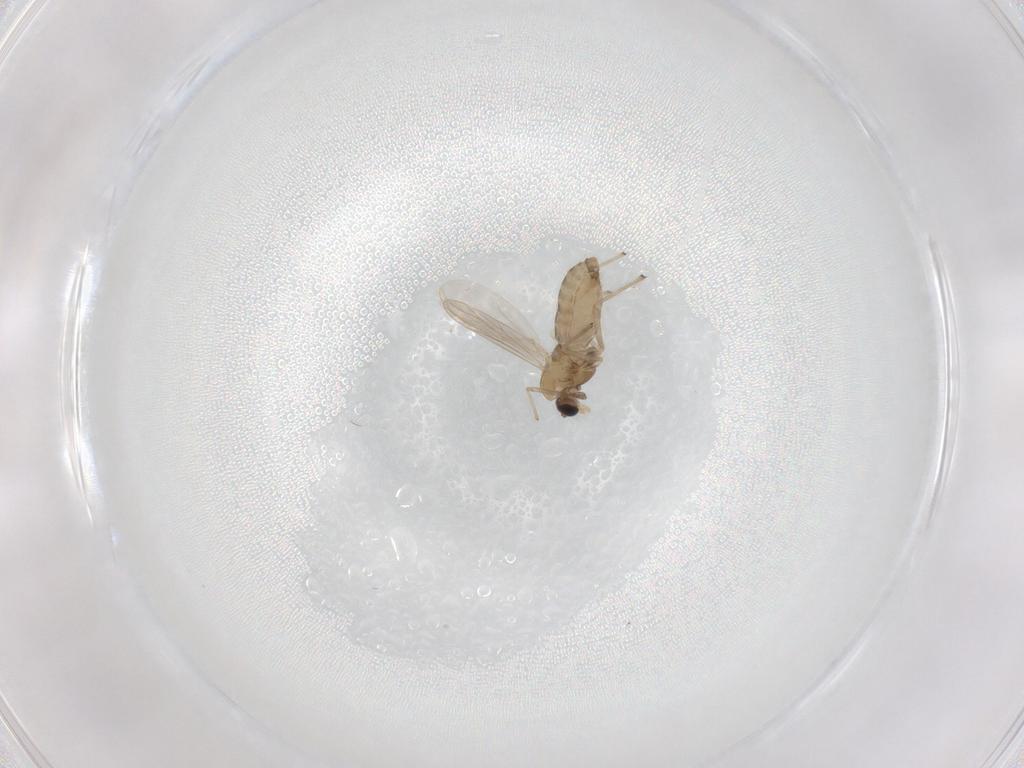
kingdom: Animalia
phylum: Arthropoda
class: Insecta
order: Diptera
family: Chironomidae
